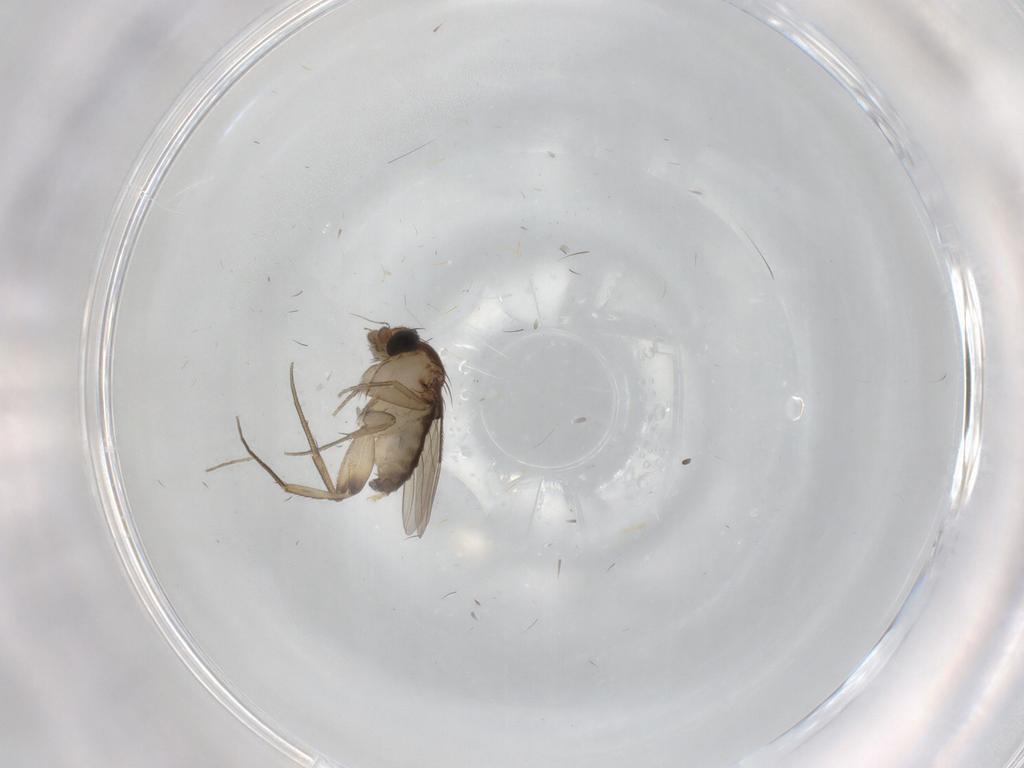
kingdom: Animalia
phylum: Arthropoda
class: Insecta
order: Diptera
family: Phoridae
